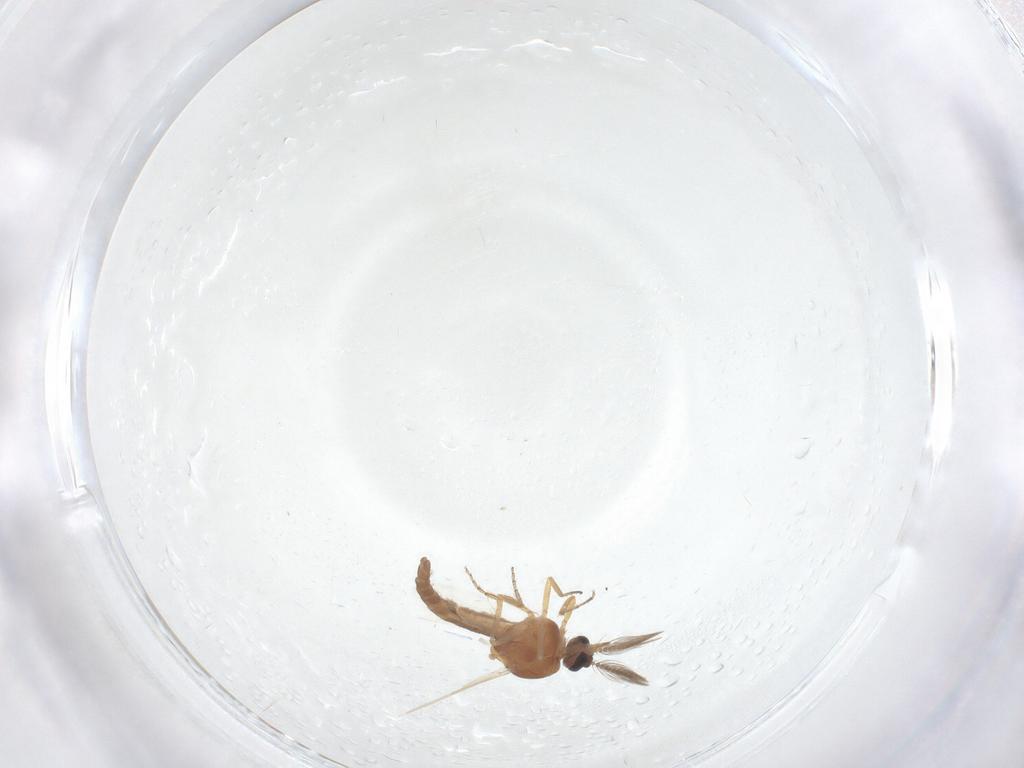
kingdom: Animalia
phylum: Arthropoda
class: Insecta
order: Diptera
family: Ceratopogonidae
